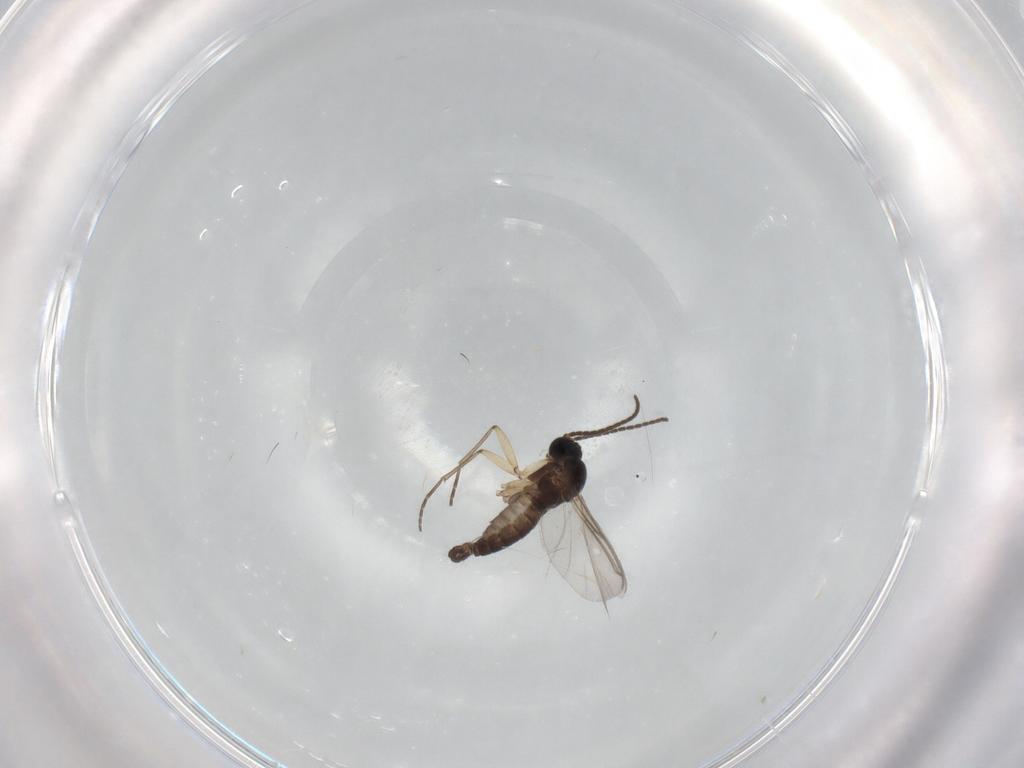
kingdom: Animalia
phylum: Arthropoda
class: Insecta
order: Diptera
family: Sciaridae
